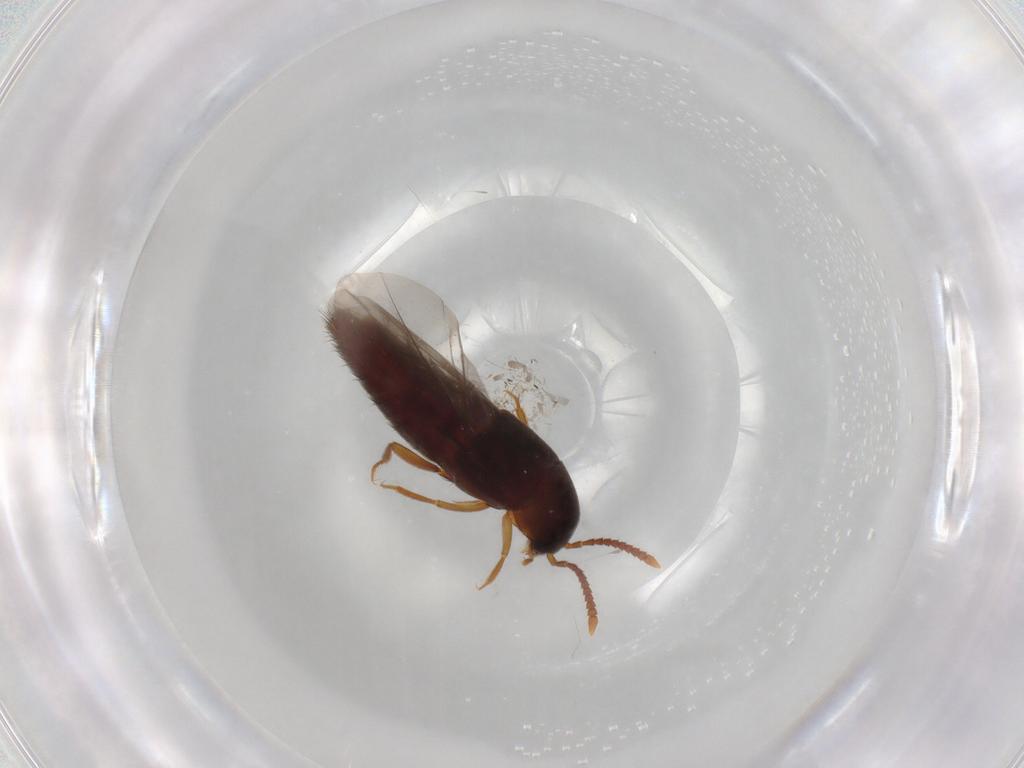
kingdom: Animalia
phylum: Arthropoda
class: Insecta
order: Coleoptera
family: Staphylinidae
